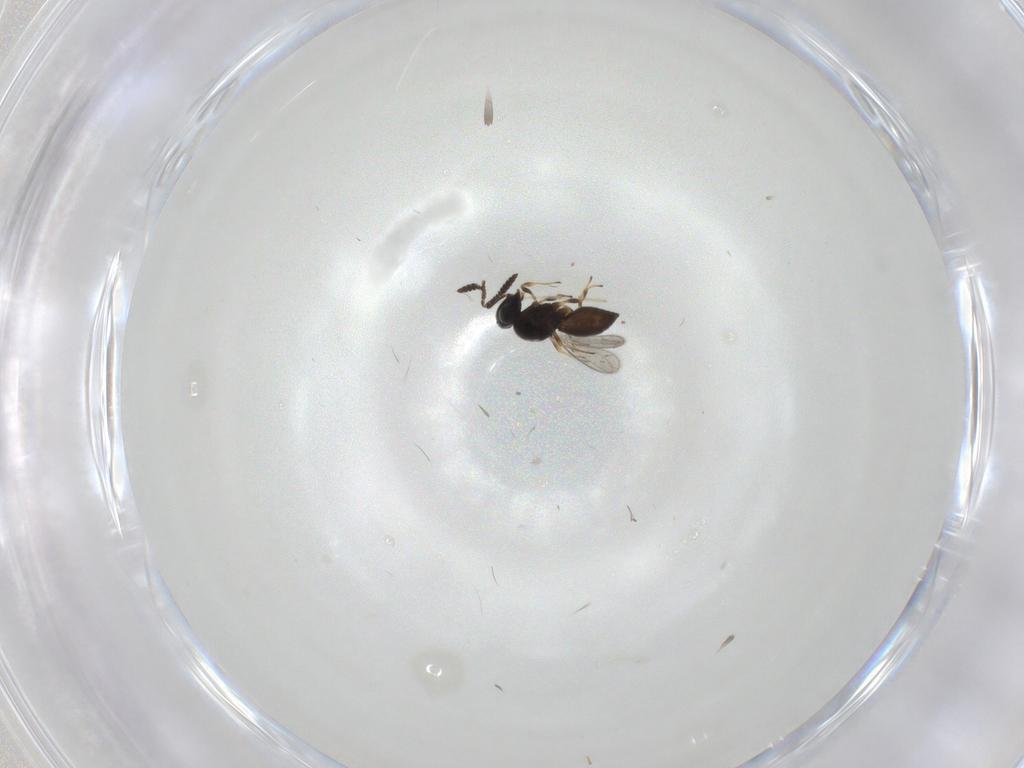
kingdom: Animalia
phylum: Arthropoda
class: Insecta
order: Hymenoptera
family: Scelionidae
